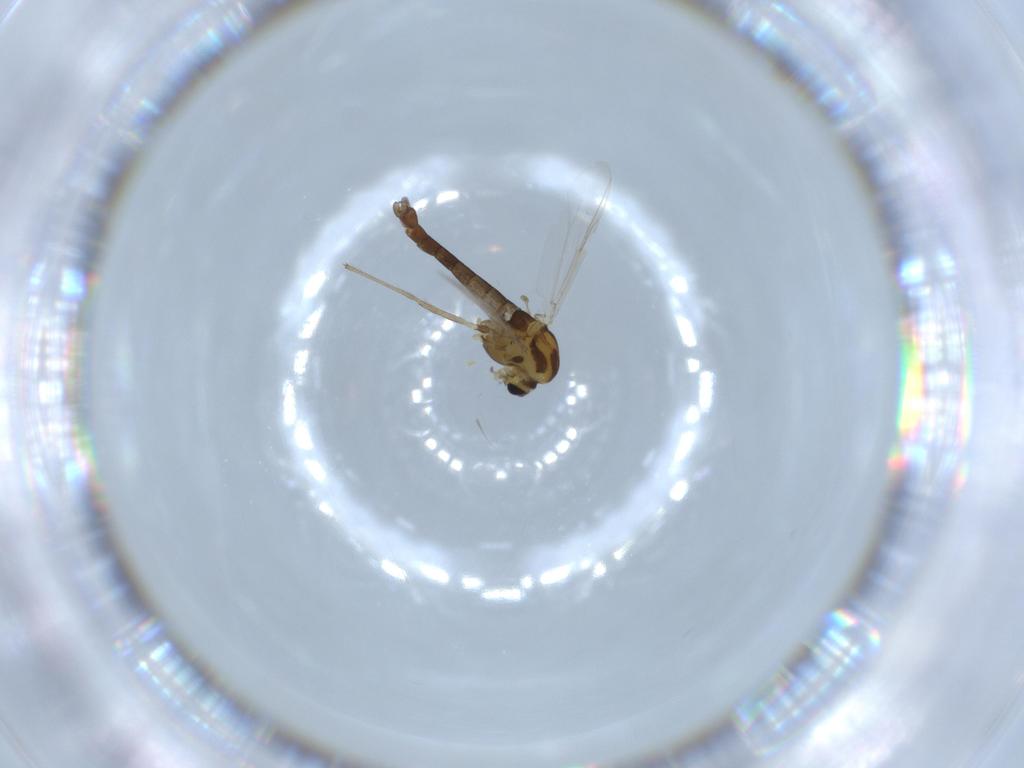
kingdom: Animalia
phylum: Arthropoda
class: Insecta
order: Diptera
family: Chironomidae
